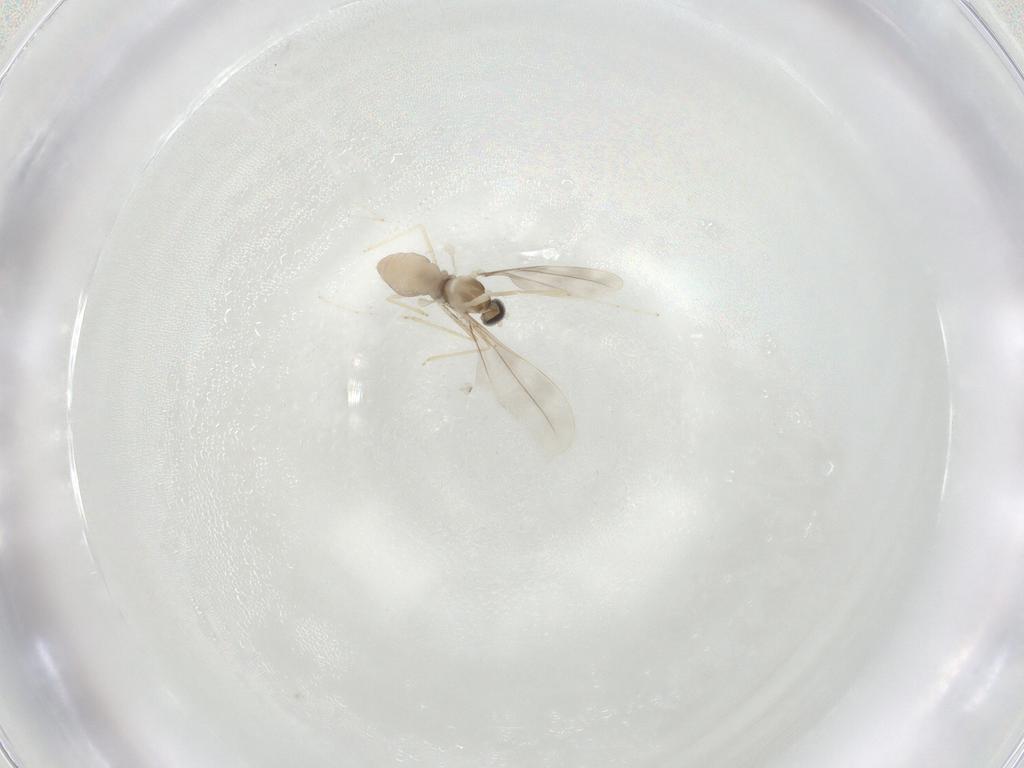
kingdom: Animalia
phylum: Arthropoda
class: Insecta
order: Diptera
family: Cecidomyiidae
